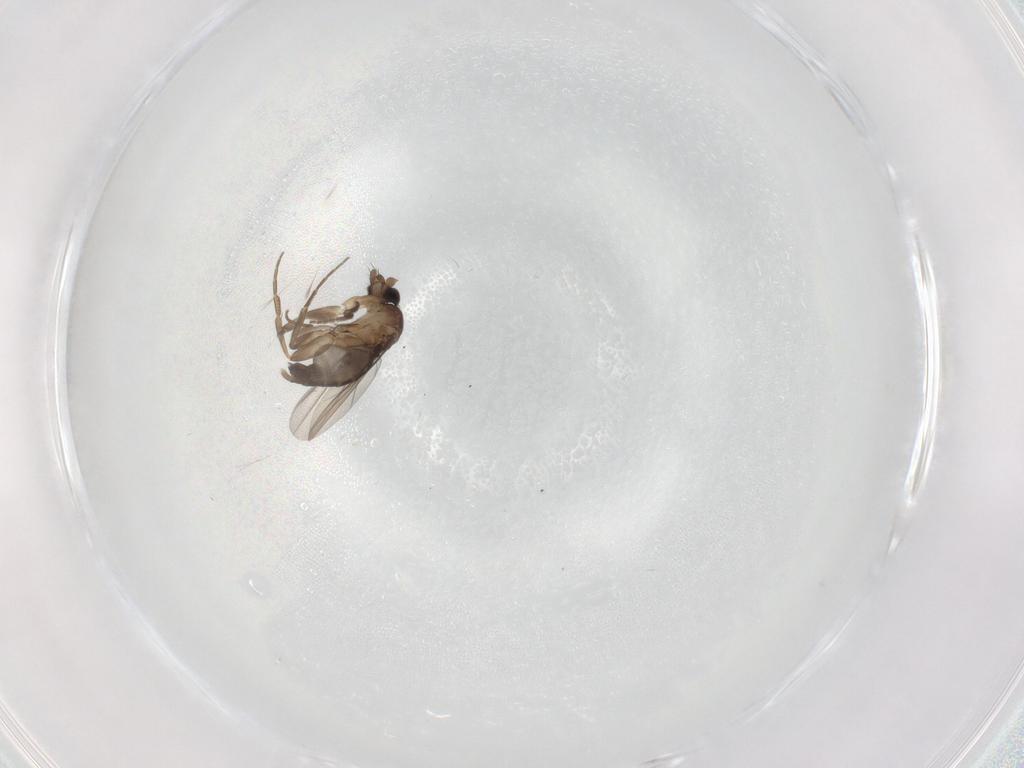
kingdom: Animalia
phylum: Arthropoda
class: Insecta
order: Diptera
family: Phoridae
